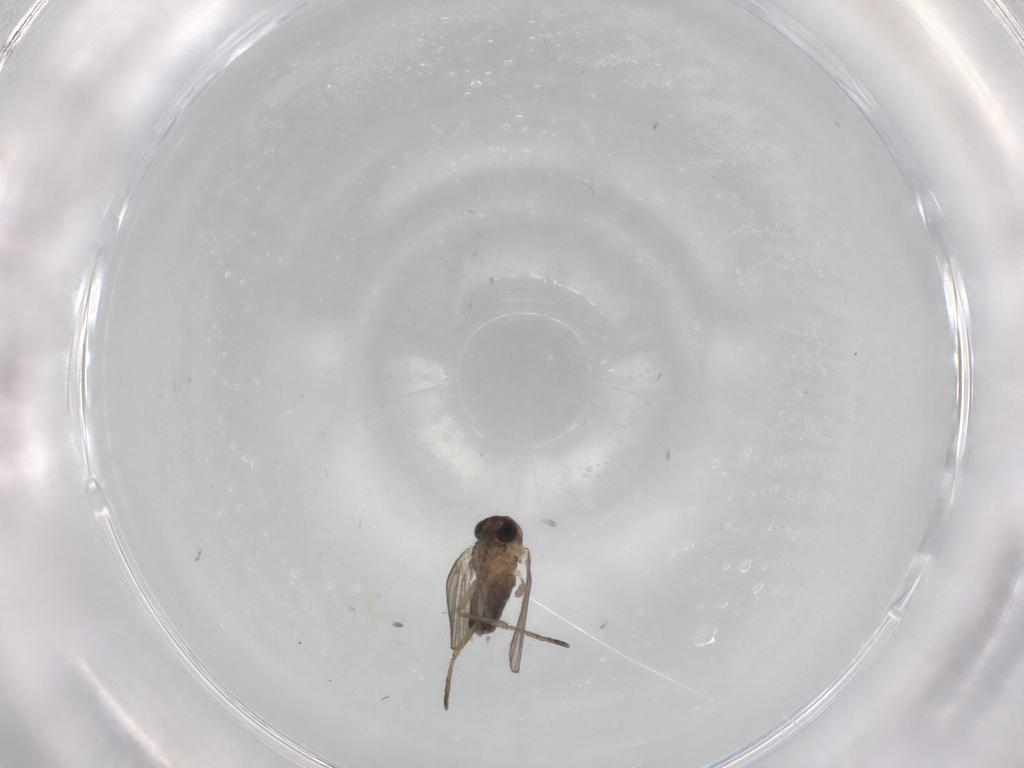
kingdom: Animalia
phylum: Arthropoda
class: Insecta
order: Diptera
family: Psychodidae
